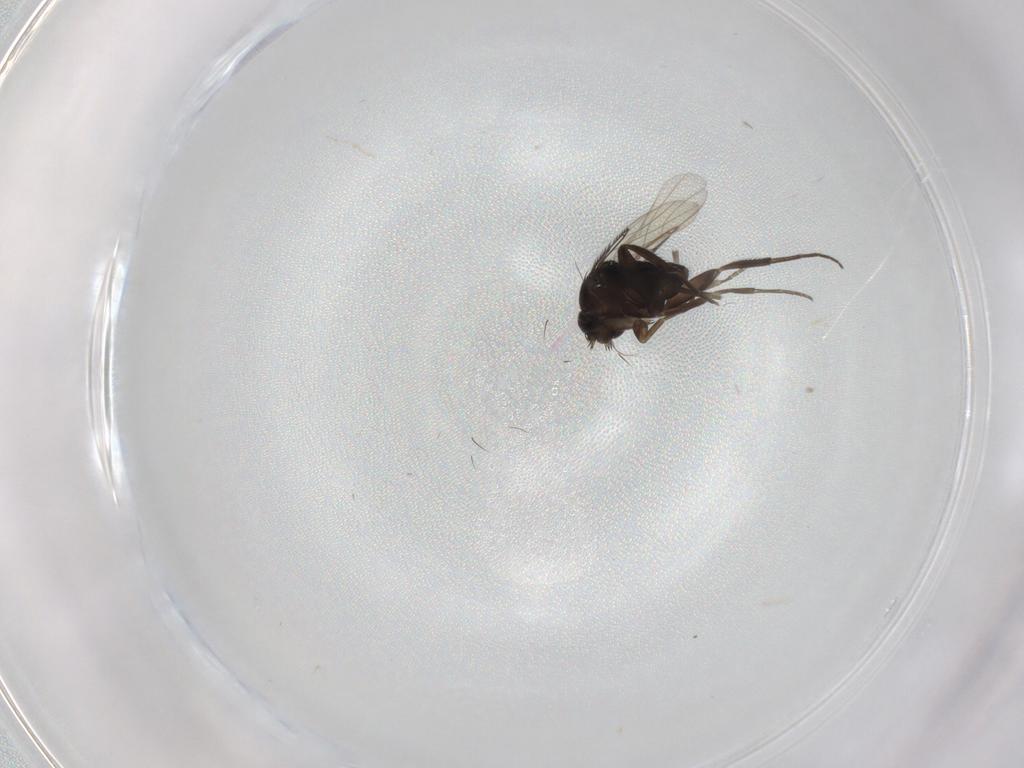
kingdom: Animalia
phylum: Arthropoda
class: Insecta
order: Diptera
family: Phoridae
